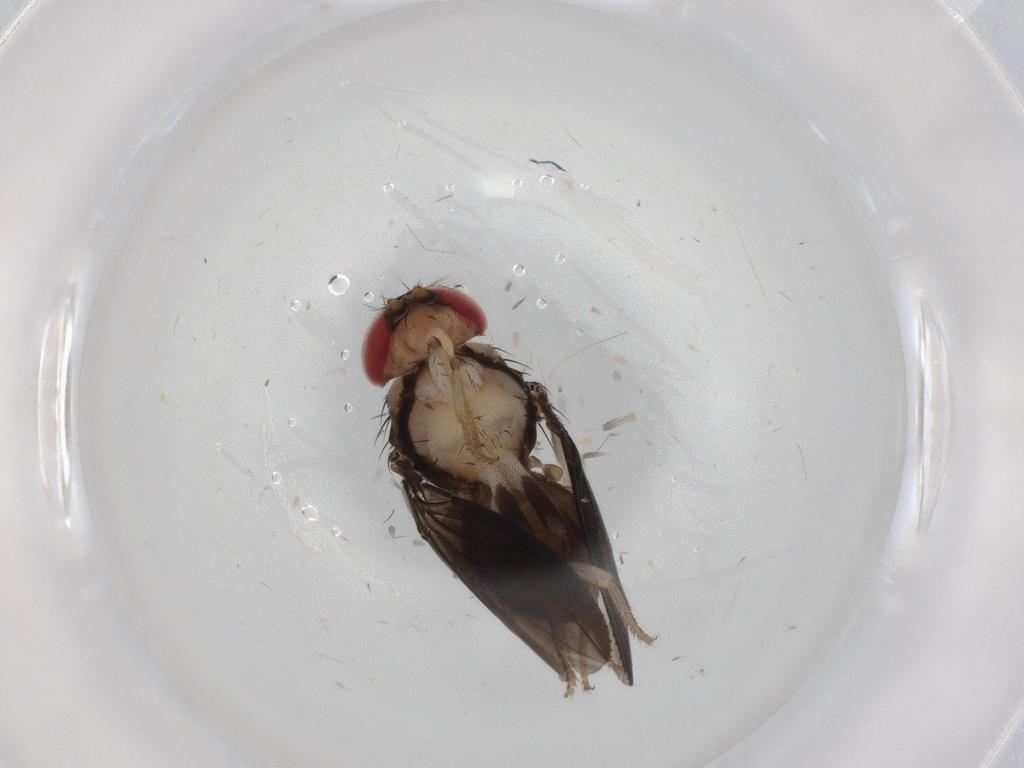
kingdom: Animalia
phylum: Arthropoda
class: Insecta
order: Diptera
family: Drosophilidae
